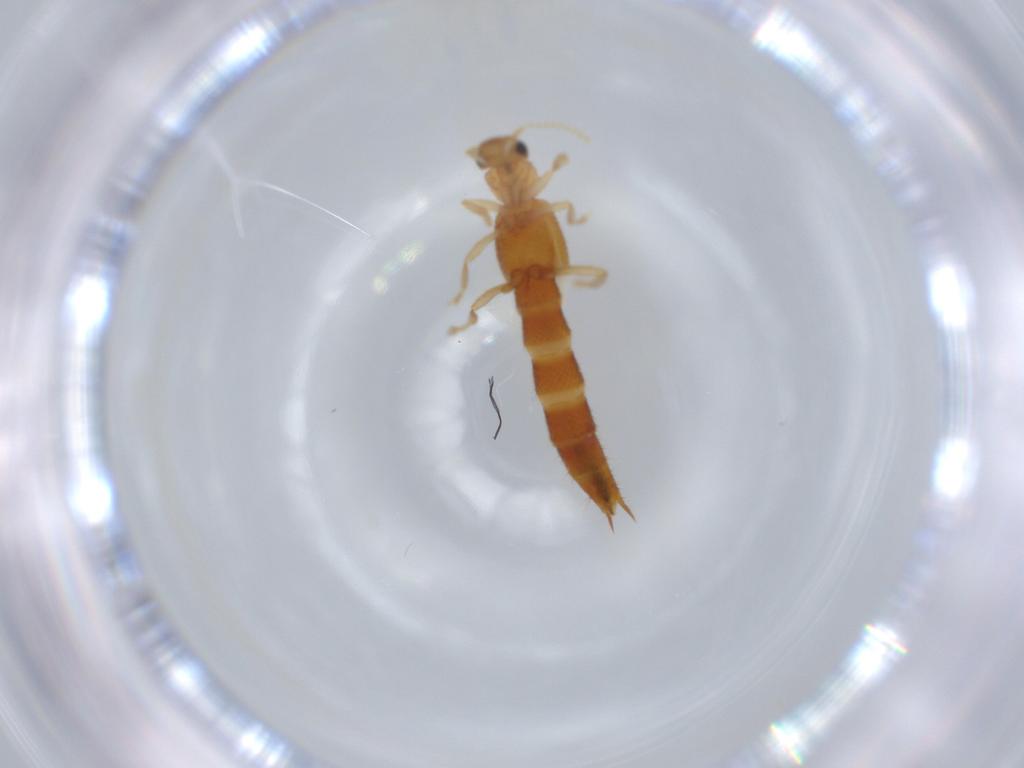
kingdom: Animalia
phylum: Arthropoda
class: Insecta
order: Coleoptera
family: Staphylinidae
